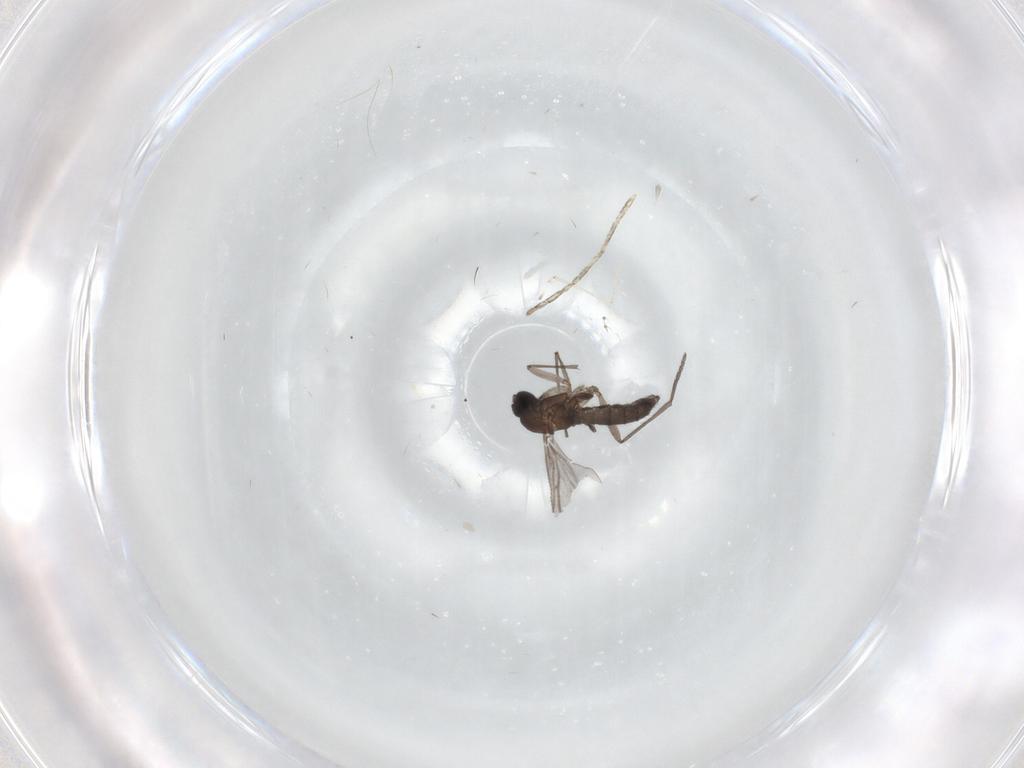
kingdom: Animalia
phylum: Arthropoda
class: Insecta
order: Diptera
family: Sciaridae
